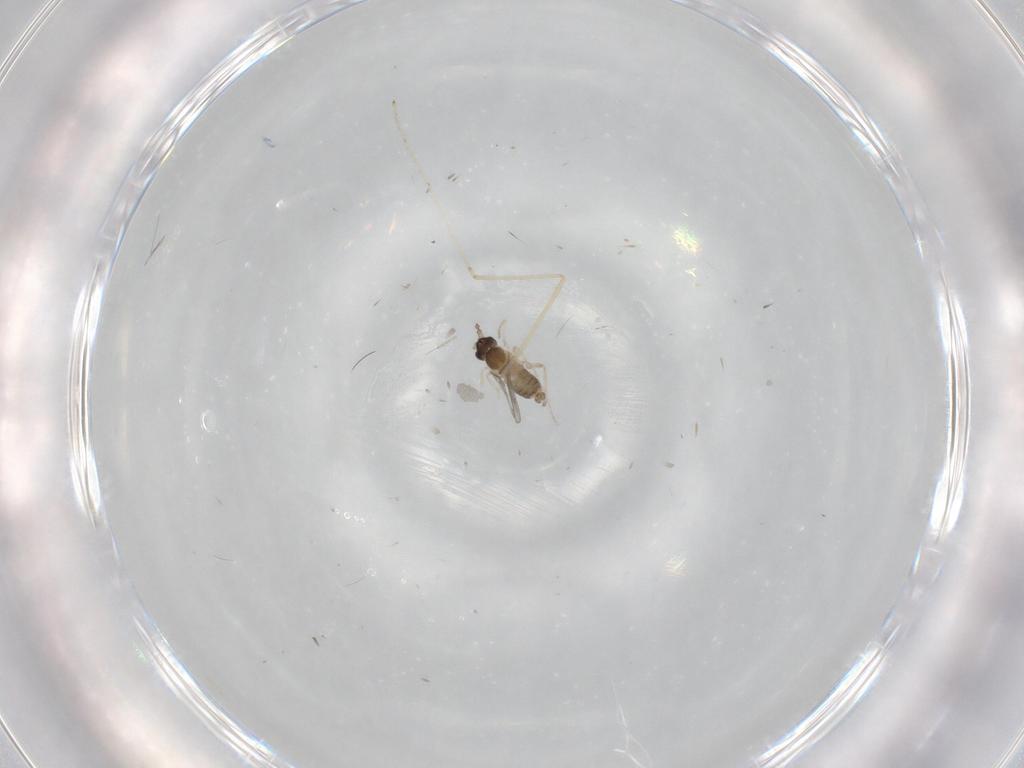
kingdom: Animalia
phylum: Arthropoda
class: Insecta
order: Diptera
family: Cecidomyiidae
